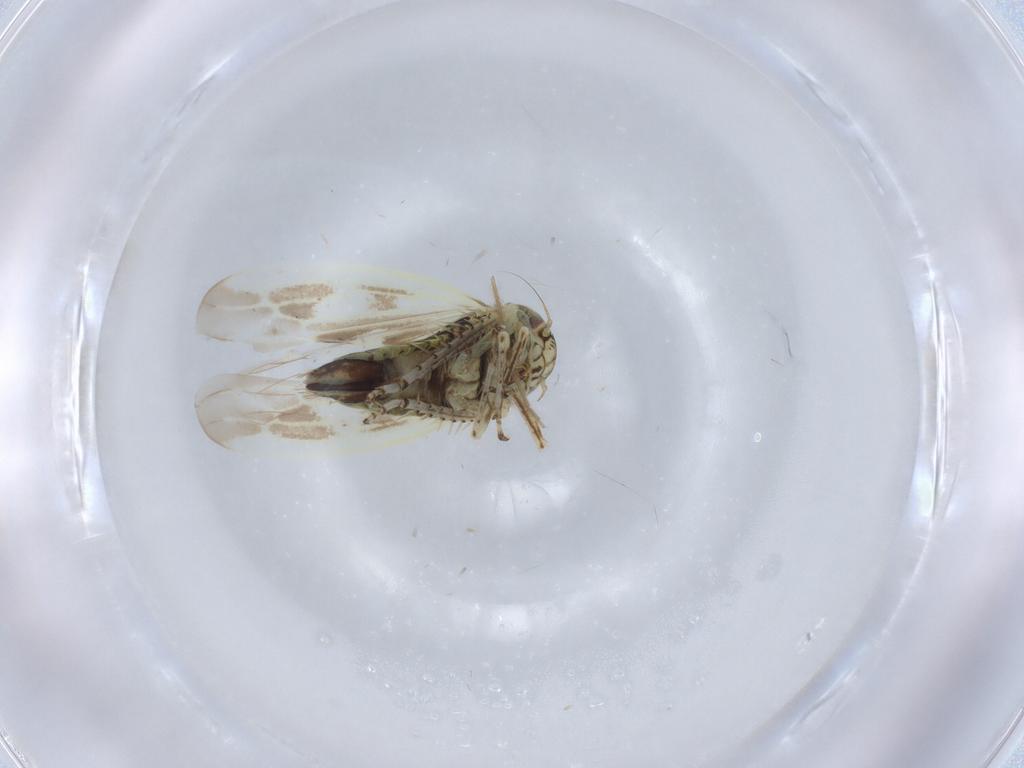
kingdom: Animalia
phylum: Arthropoda
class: Insecta
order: Hemiptera
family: Cicadellidae
